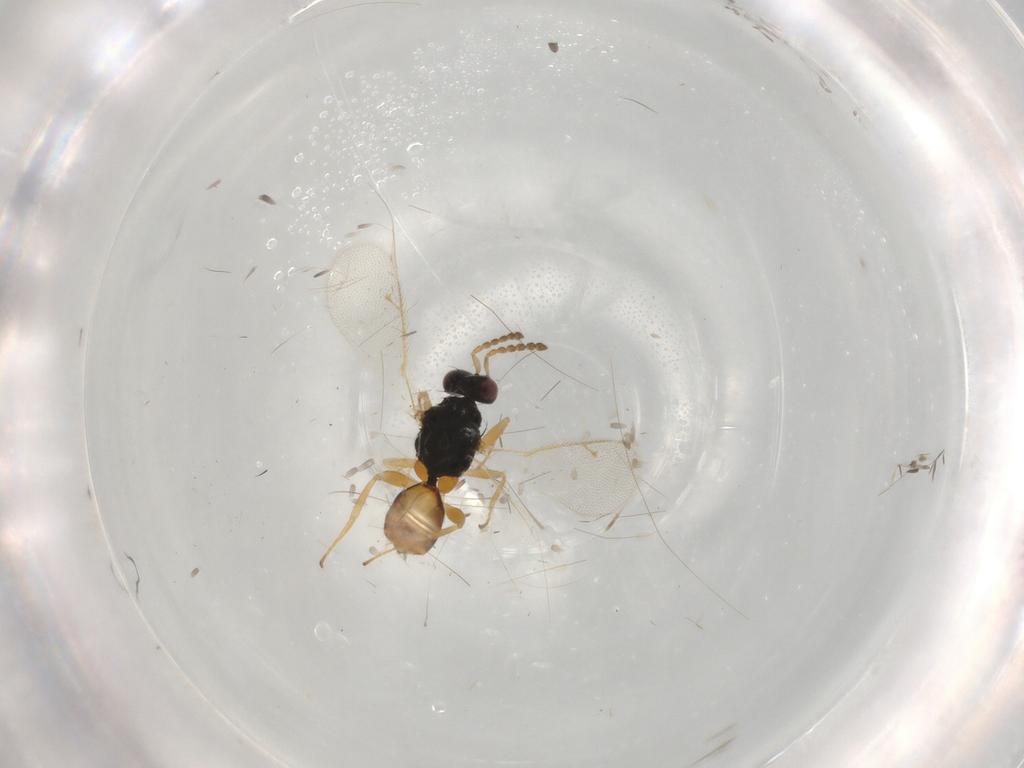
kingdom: Animalia
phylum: Arthropoda
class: Insecta
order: Hymenoptera
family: Eulophidae
